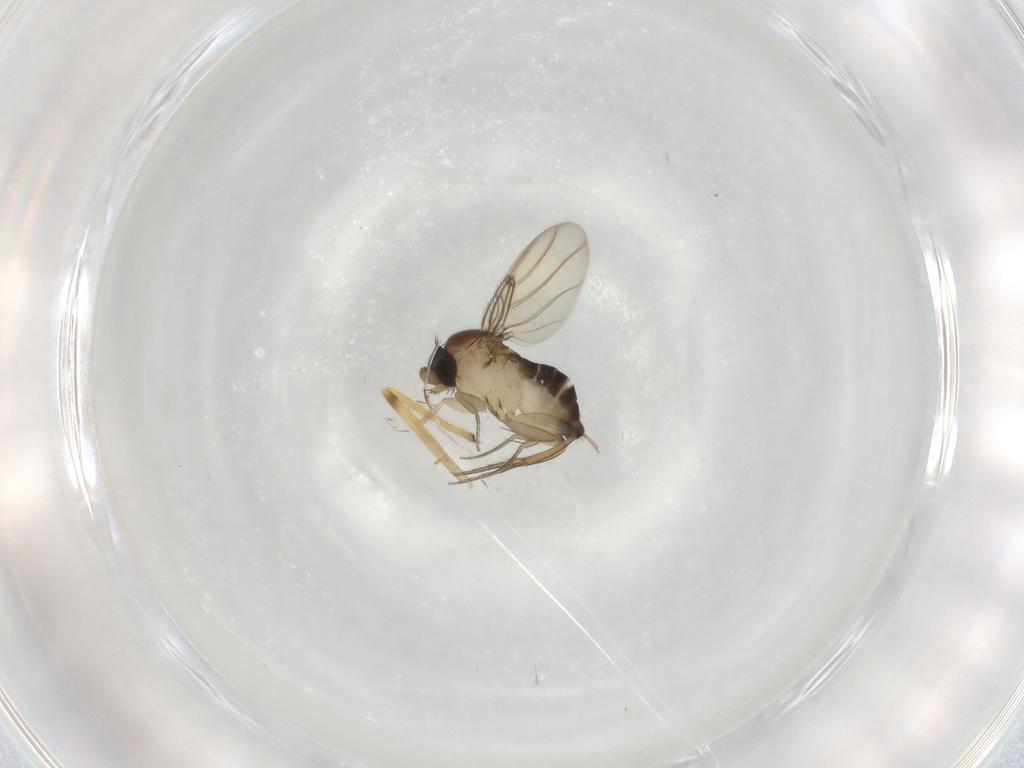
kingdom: Animalia
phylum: Arthropoda
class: Insecta
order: Diptera
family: Phoridae
